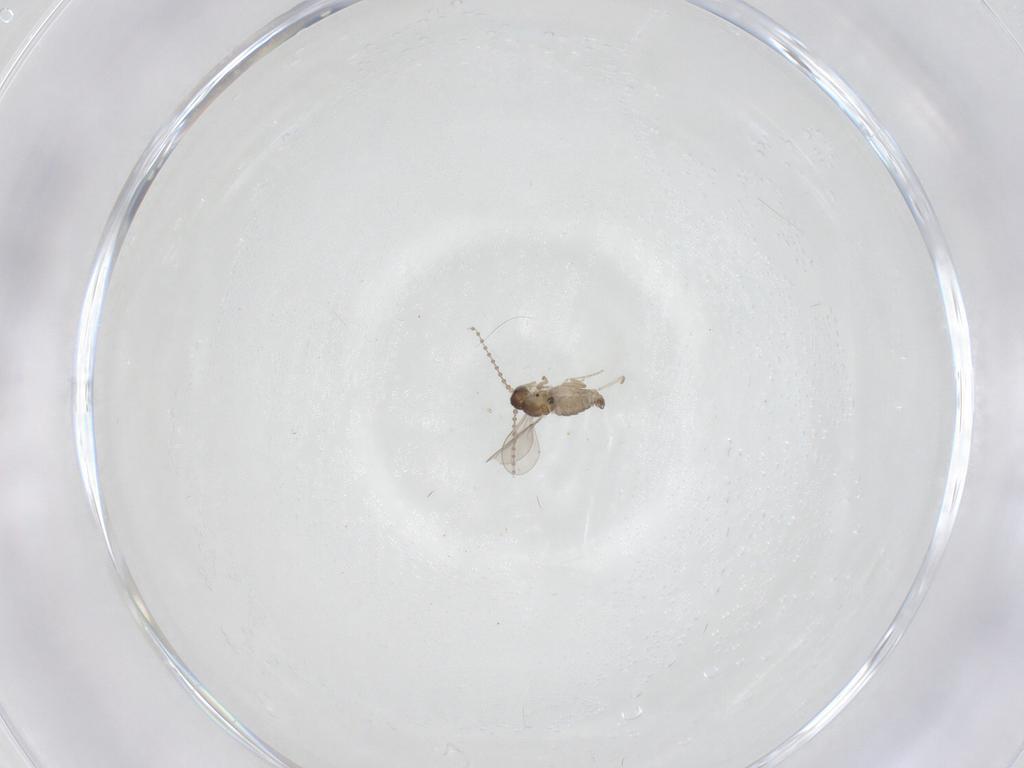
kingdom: Animalia
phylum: Arthropoda
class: Insecta
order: Diptera
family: Cecidomyiidae
